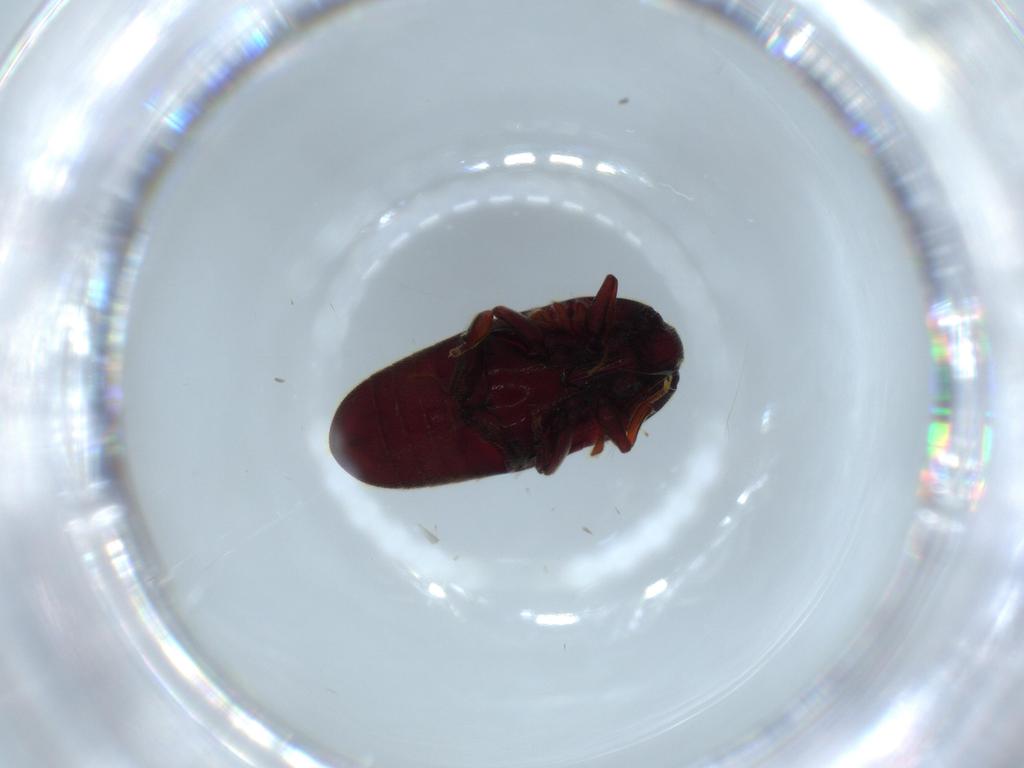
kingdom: Animalia
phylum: Arthropoda
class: Insecta
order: Coleoptera
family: Throscidae
